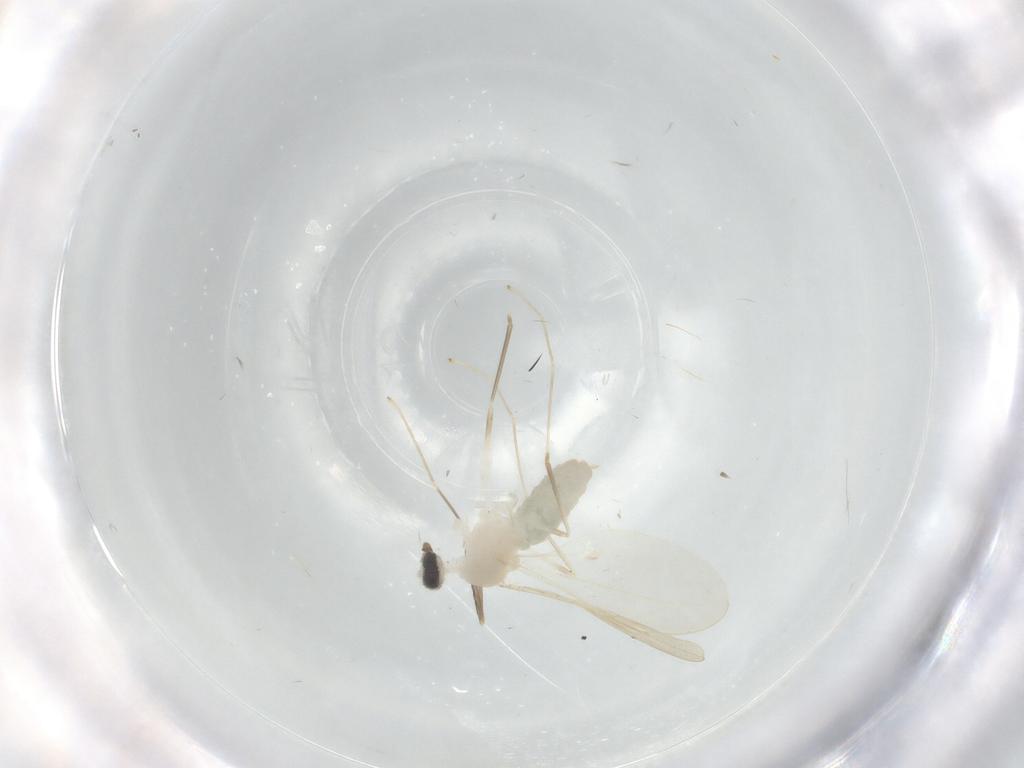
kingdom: Animalia
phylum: Arthropoda
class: Insecta
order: Diptera
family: Cecidomyiidae
